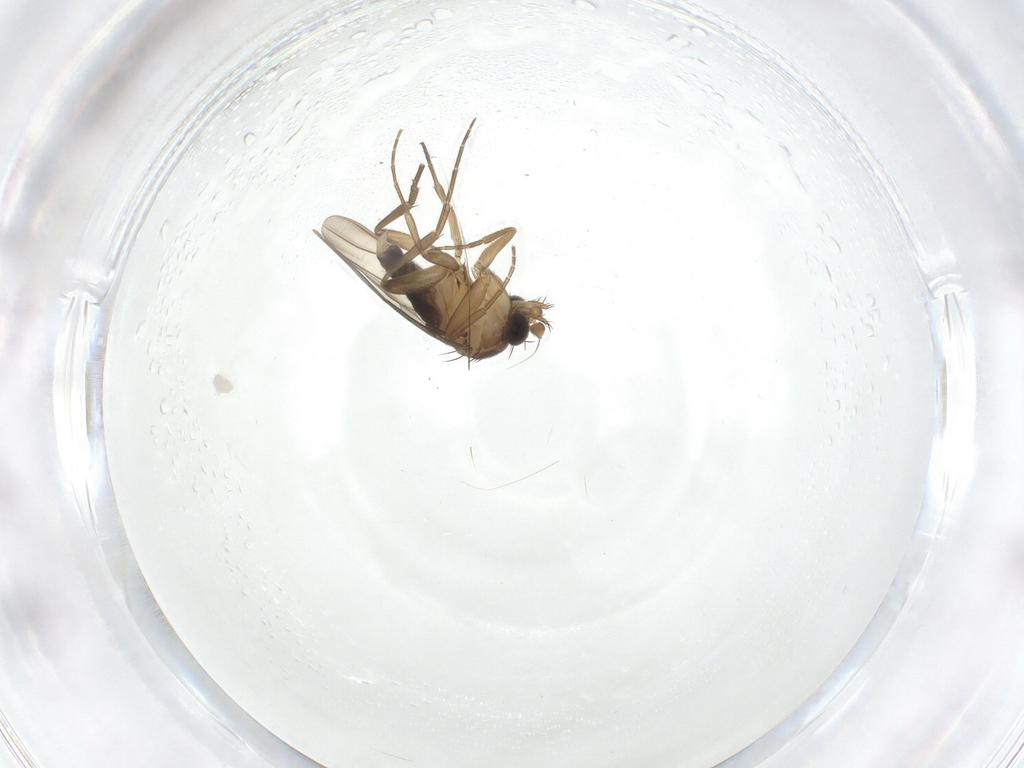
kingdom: Animalia
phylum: Arthropoda
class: Insecta
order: Diptera
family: Phoridae
